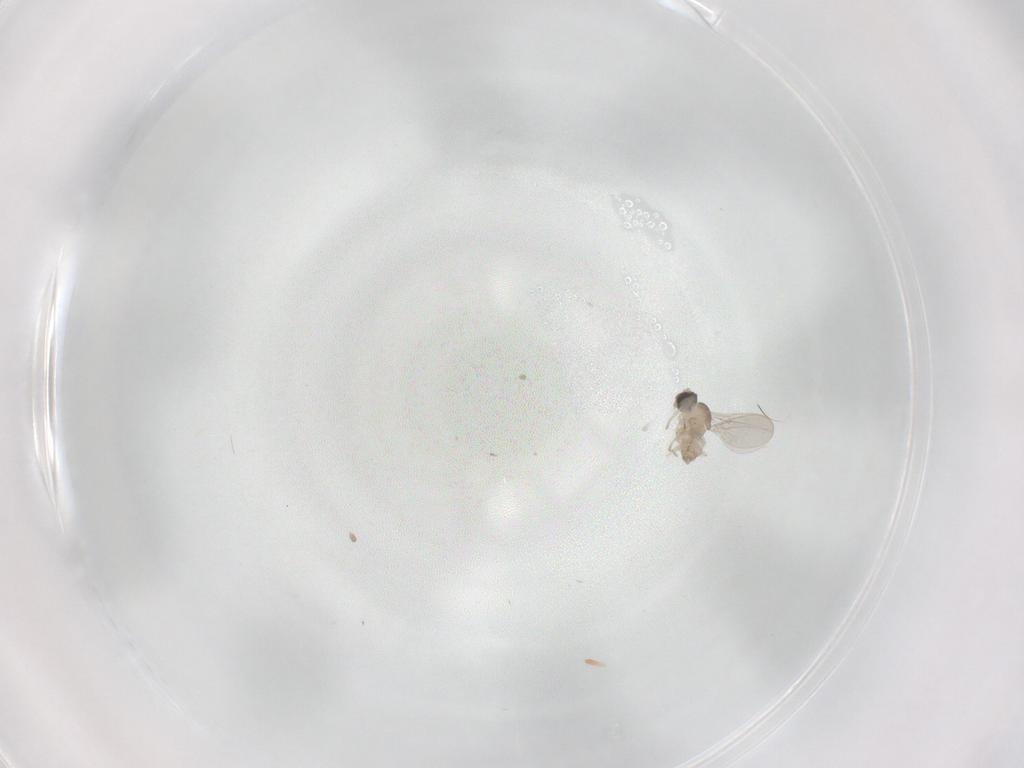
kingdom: Animalia
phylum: Arthropoda
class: Insecta
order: Diptera
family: Cecidomyiidae
